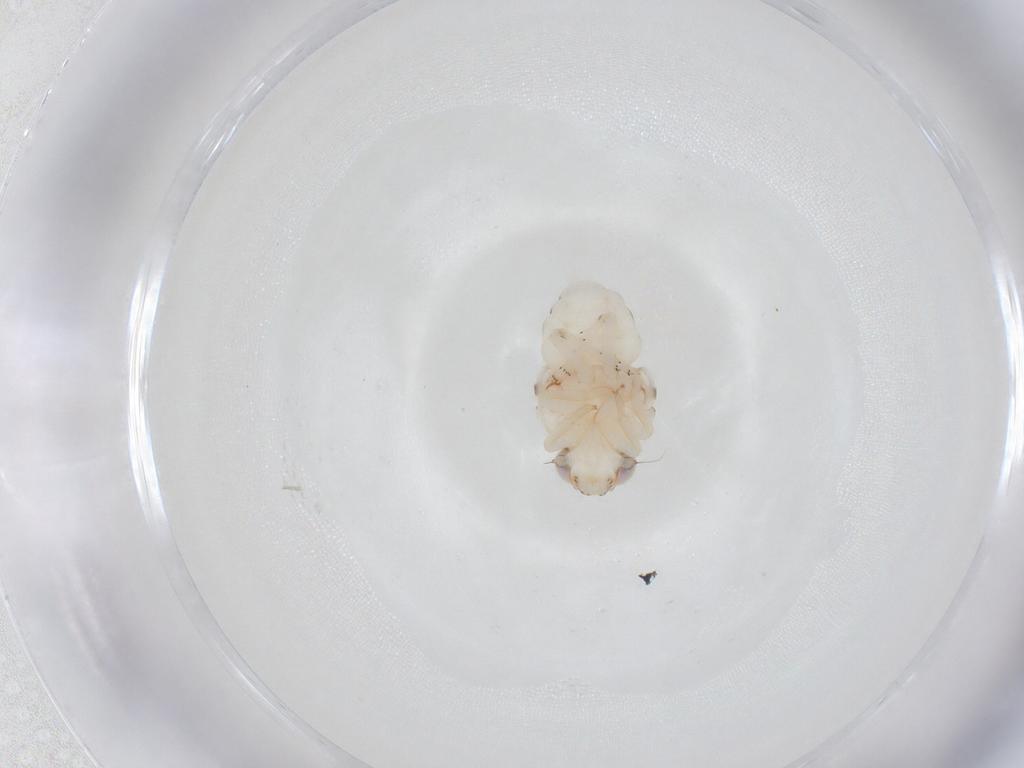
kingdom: Animalia
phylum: Arthropoda
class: Insecta
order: Hemiptera
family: Nogodinidae
